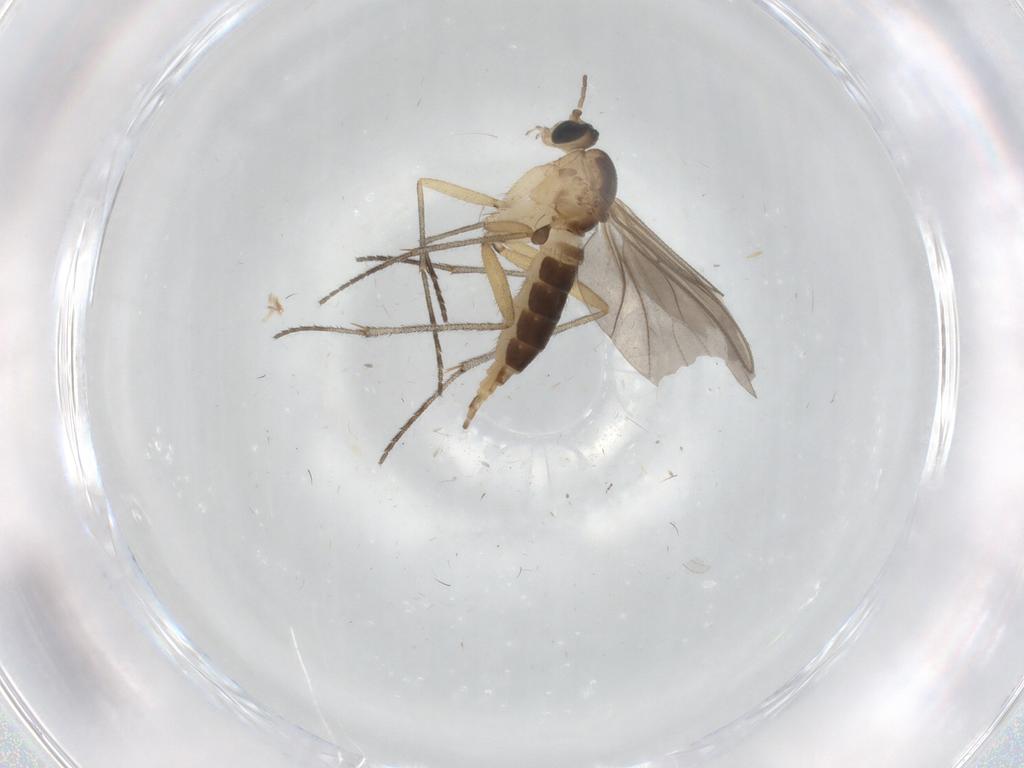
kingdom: Animalia
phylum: Arthropoda
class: Insecta
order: Diptera
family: Sciaridae
